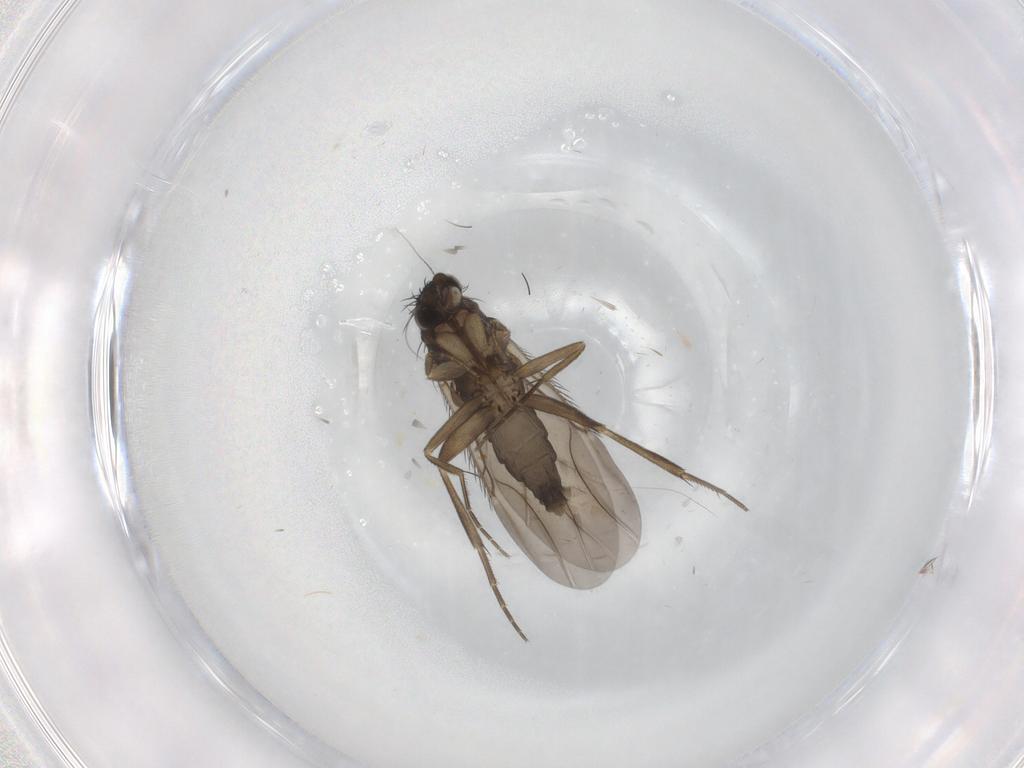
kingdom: Animalia
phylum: Arthropoda
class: Insecta
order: Diptera
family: Phoridae
